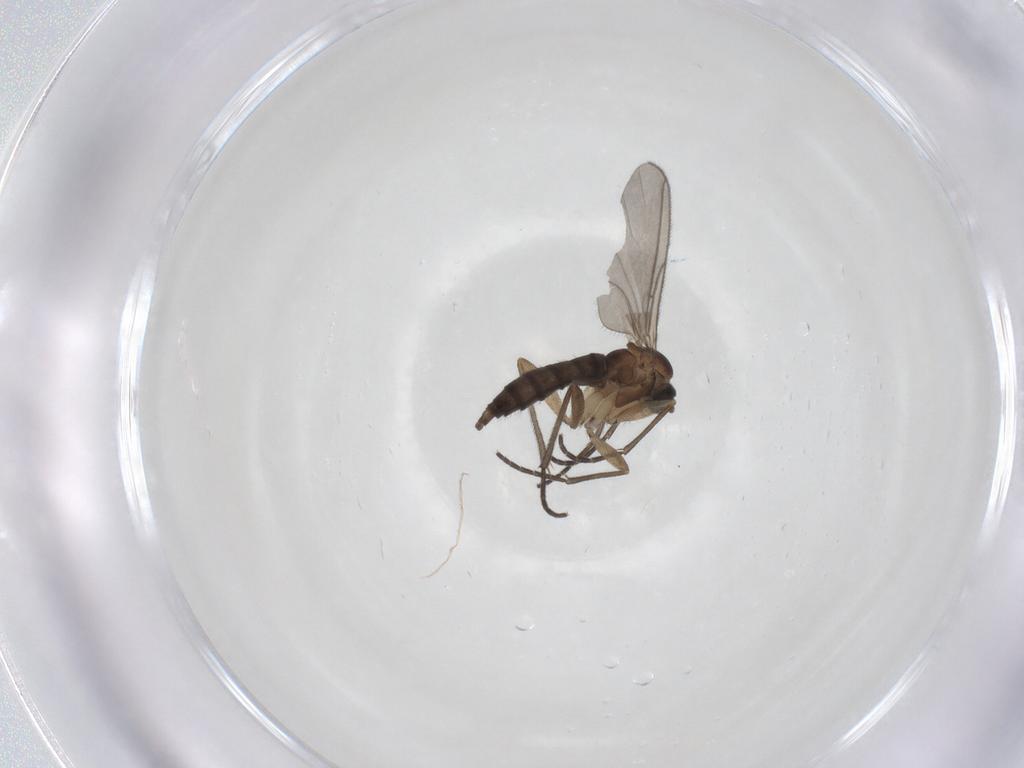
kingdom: Animalia
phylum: Arthropoda
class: Insecta
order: Diptera
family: Sciaridae
